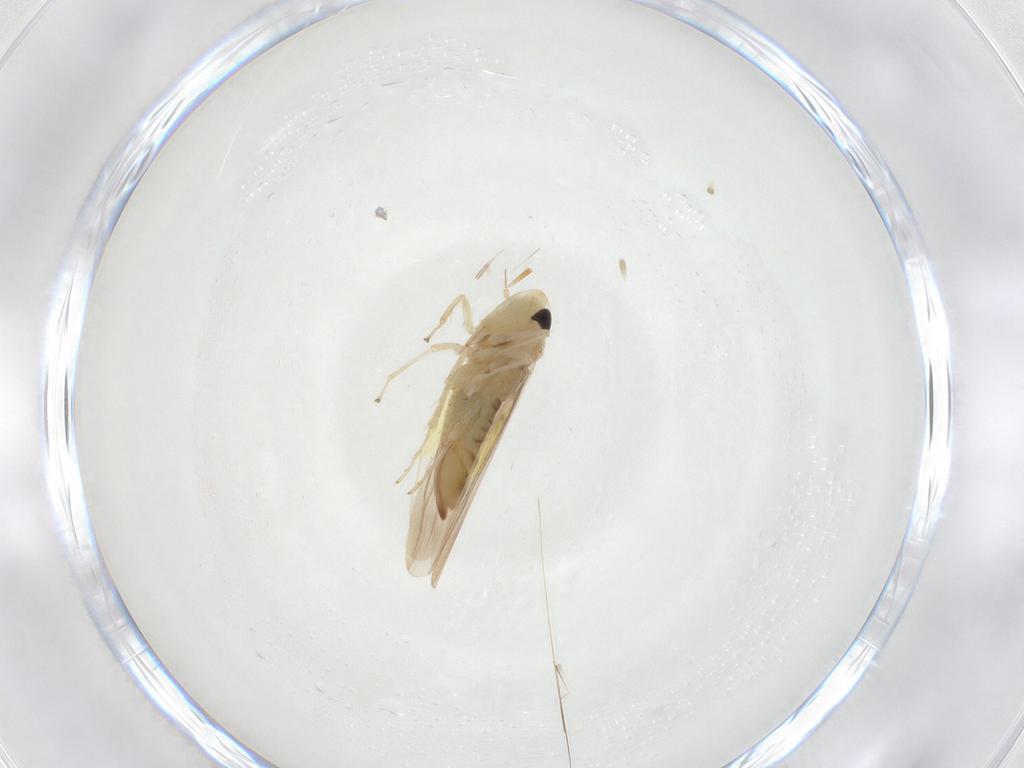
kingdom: Animalia
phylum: Arthropoda
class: Insecta
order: Hemiptera
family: Cicadellidae
